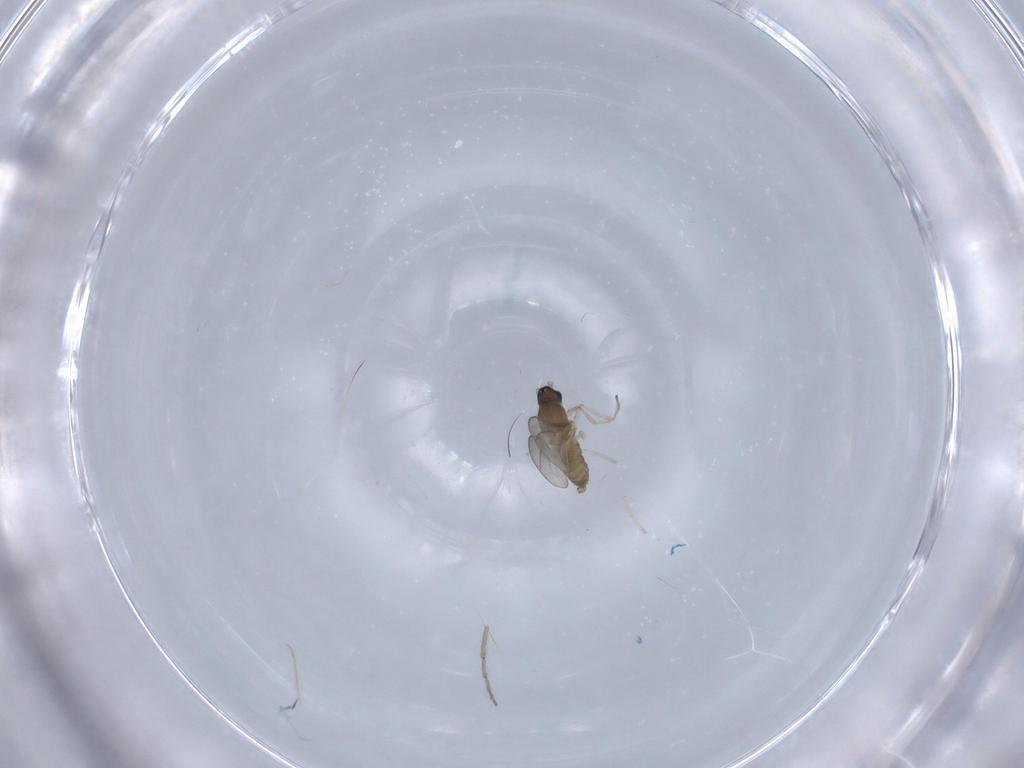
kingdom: Animalia
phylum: Arthropoda
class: Insecta
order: Diptera
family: Cecidomyiidae
